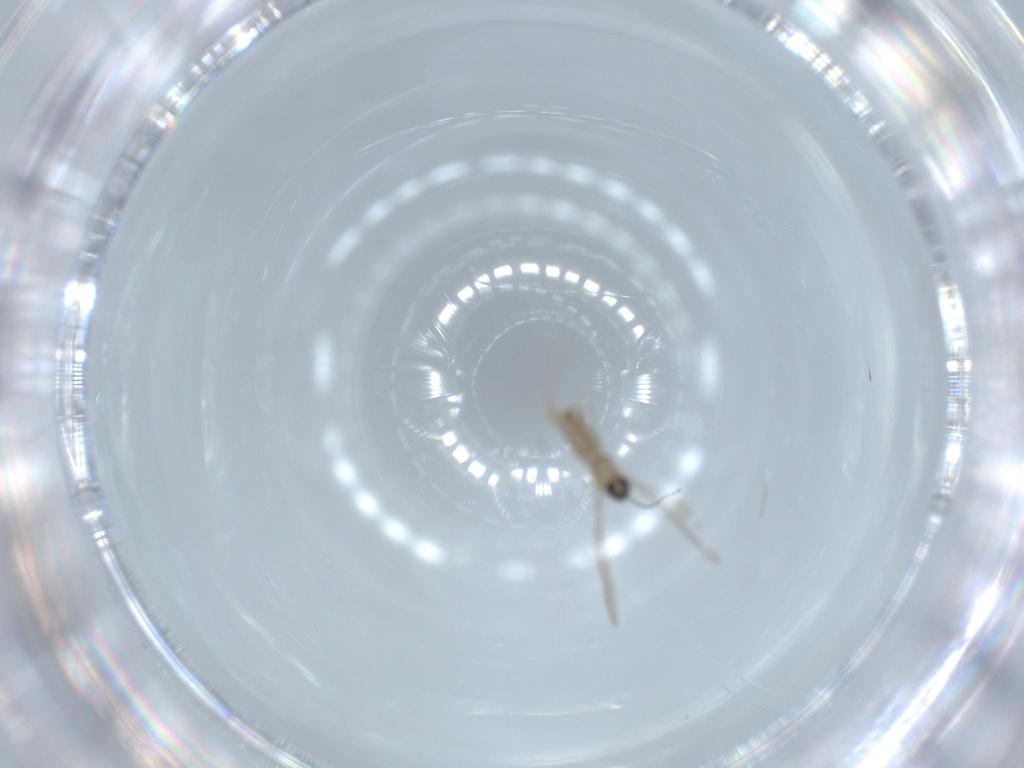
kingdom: Animalia
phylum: Arthropoda
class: Insecta
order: Diptera
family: Cecidomyiidae
